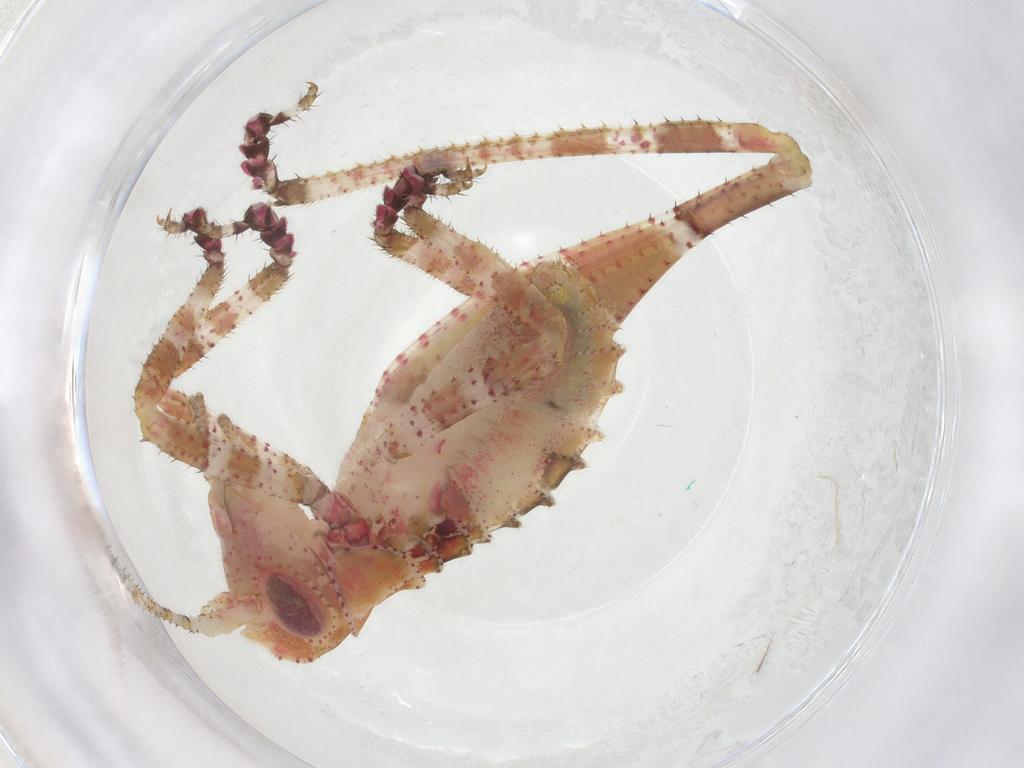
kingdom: Animalia
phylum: Arthropoda
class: Insecta
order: Orthoptera
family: Tettigoniidae
